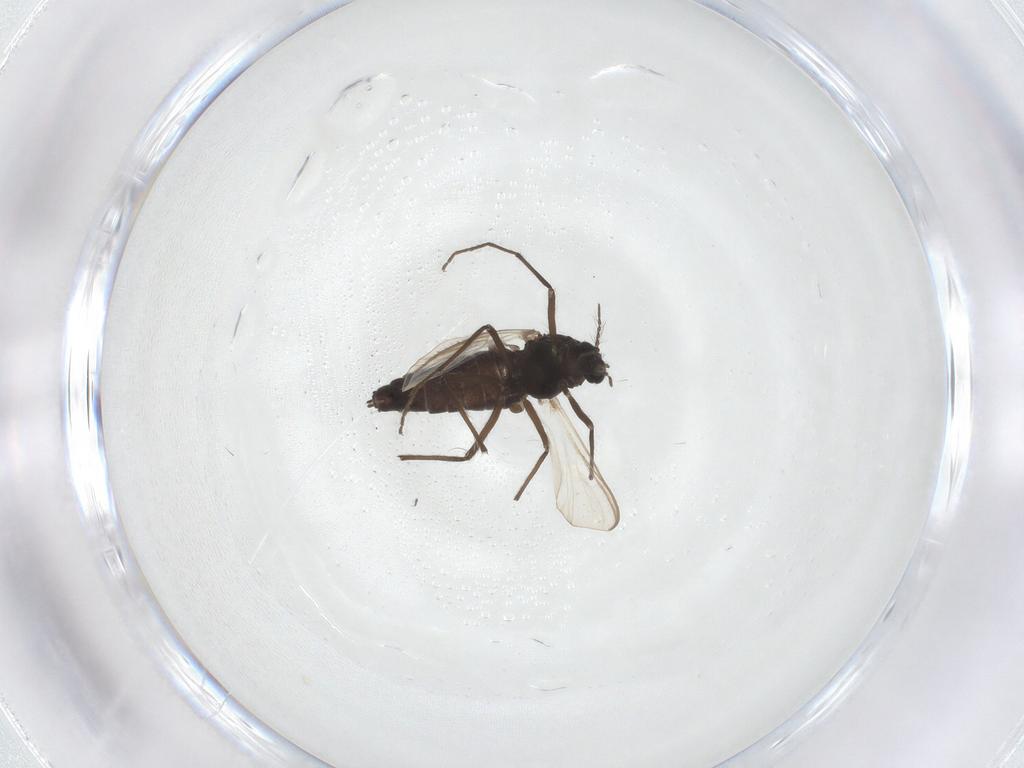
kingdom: Animalia
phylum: Arthropoda
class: Insecta
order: Diptera
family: Chironomidae
